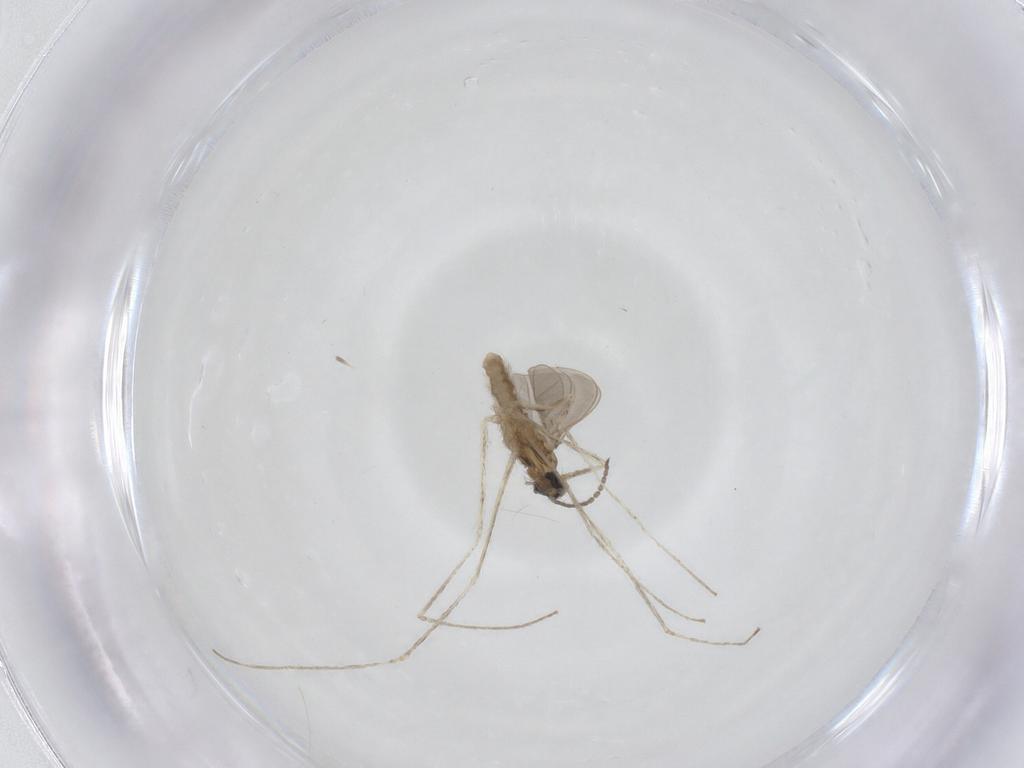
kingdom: Animalia
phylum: Arthropoda
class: Insecta
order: Diptera
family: Cecidomyiidae
